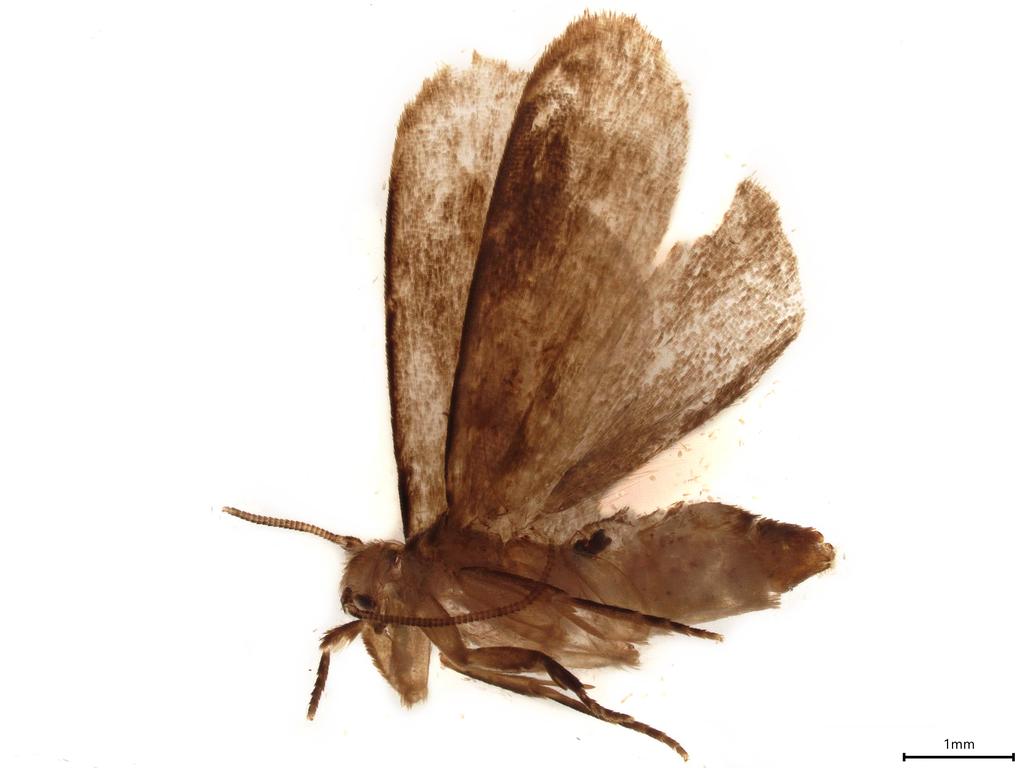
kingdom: Animalia
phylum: Arthropoda
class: Insecta
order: Lepidoptera
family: Dryadaulidae
